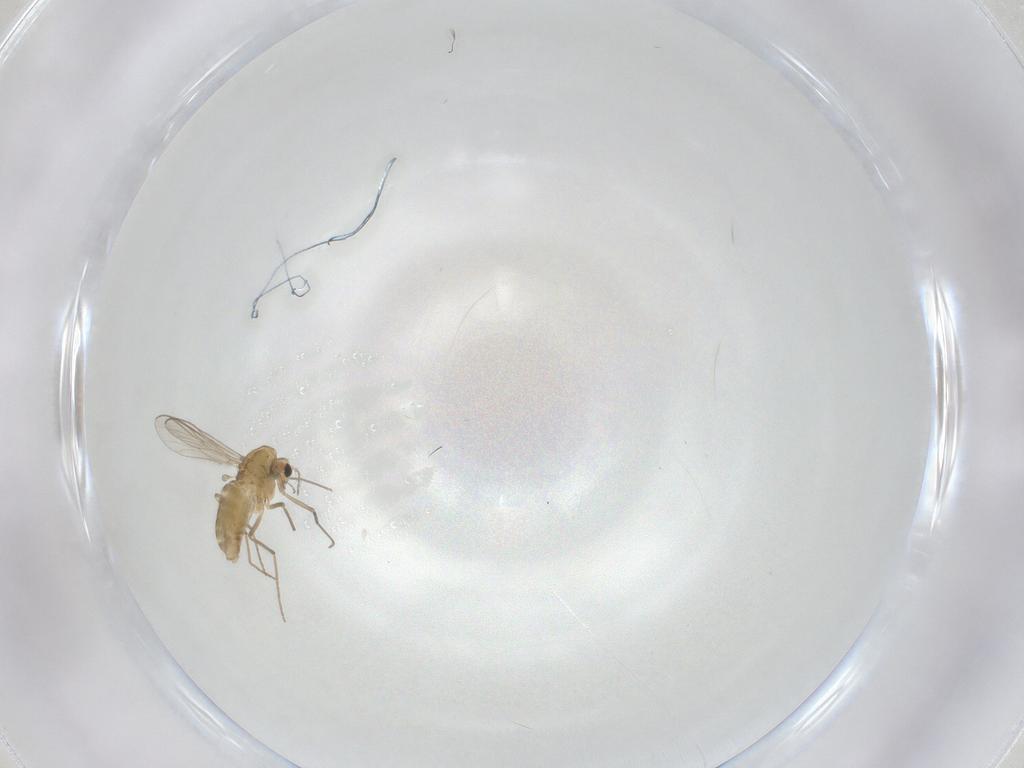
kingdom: Animalia
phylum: Arthropoda
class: Insecta
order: Diptera
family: Chironomidae
